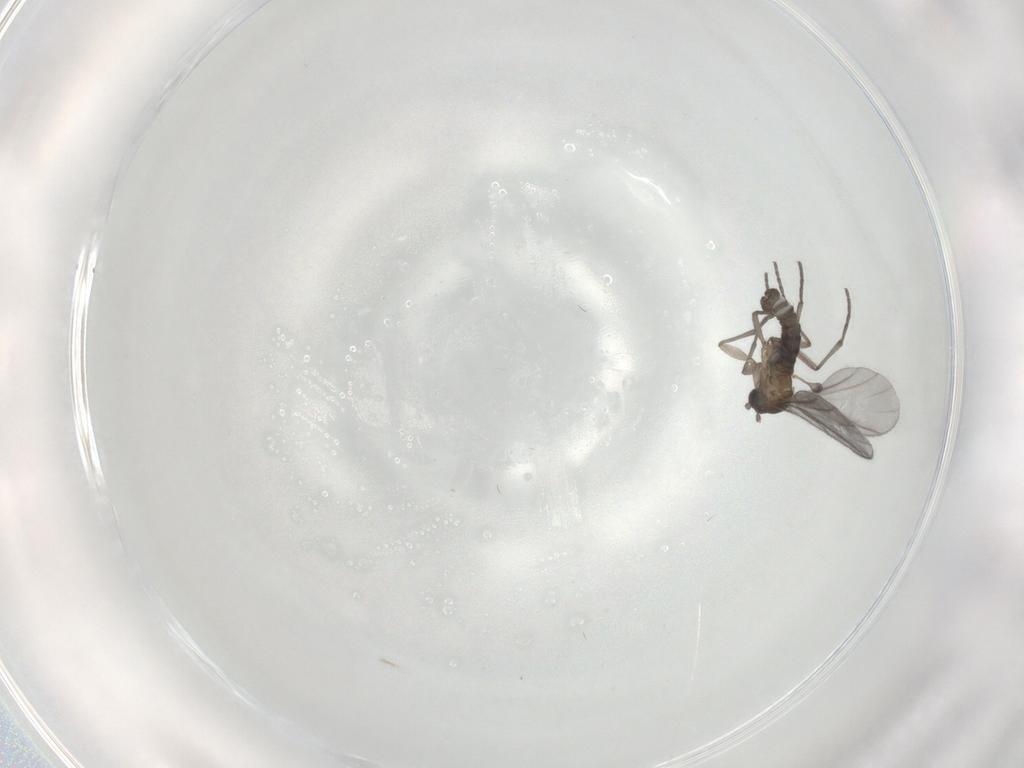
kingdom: Animalia
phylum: Arthropoda
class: Insecta
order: Diptera
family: Sciaridae
